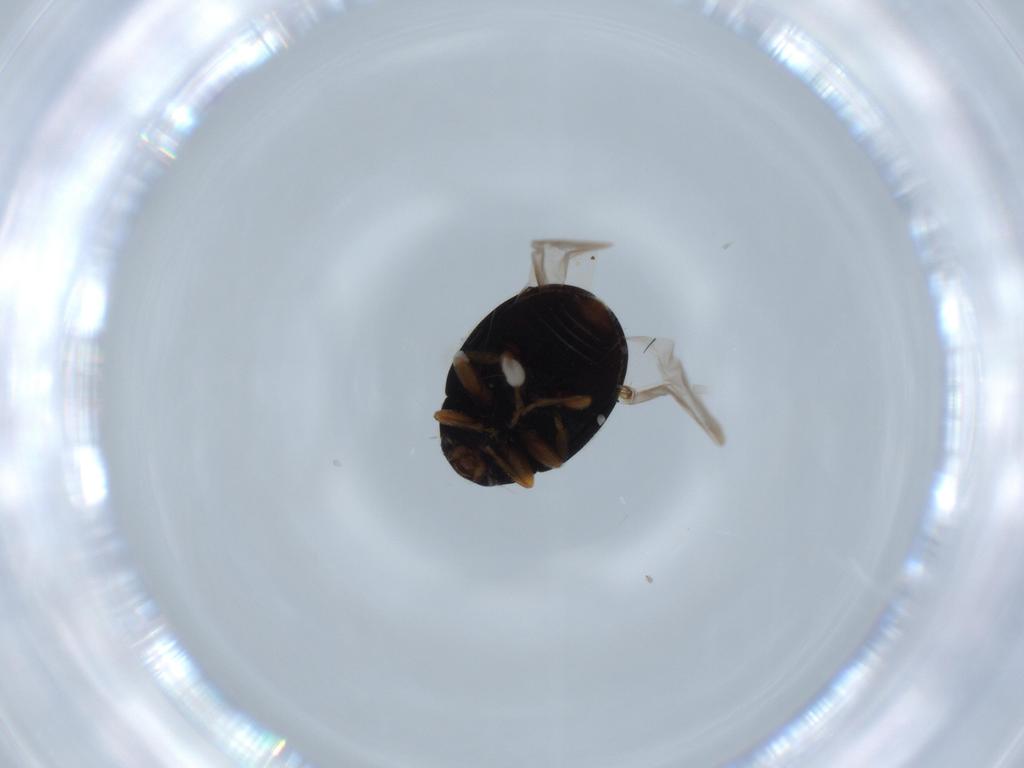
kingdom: Animalia
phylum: Arthropoda
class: Insecta
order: Coleoptera
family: Coccinellidae
